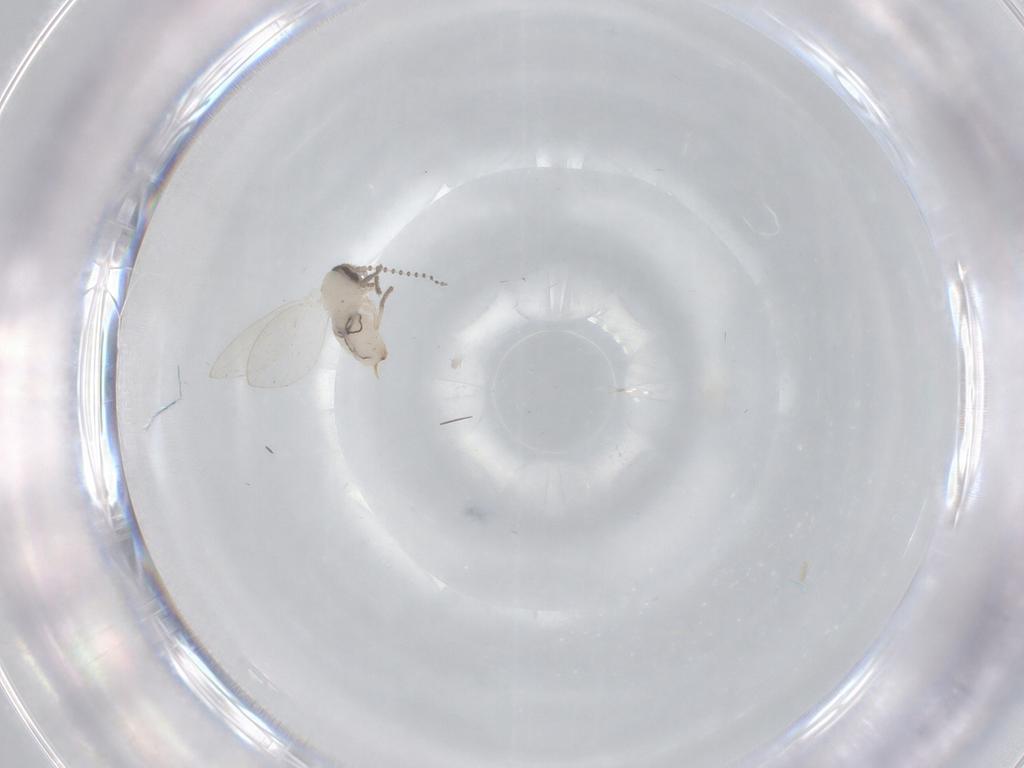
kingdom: Animalia
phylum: Arthropoda
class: Insecta
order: Diptera
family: Psychodidae
